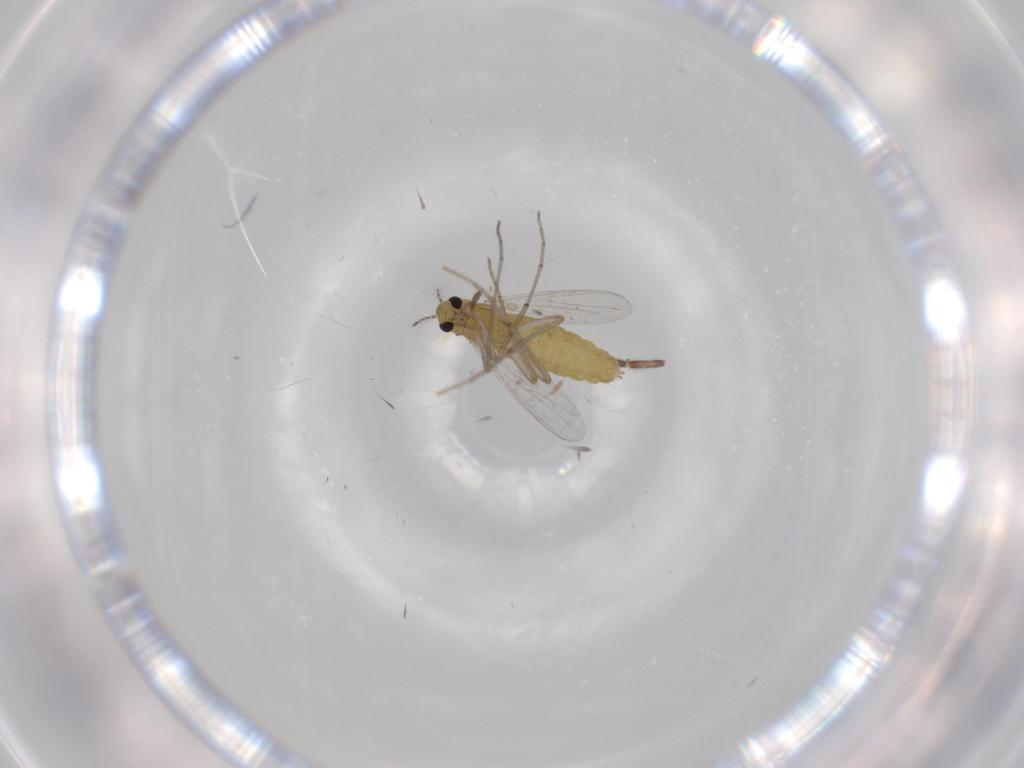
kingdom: Animalia
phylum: Arthropoda
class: Insecta
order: Diptera
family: Chironomidae
